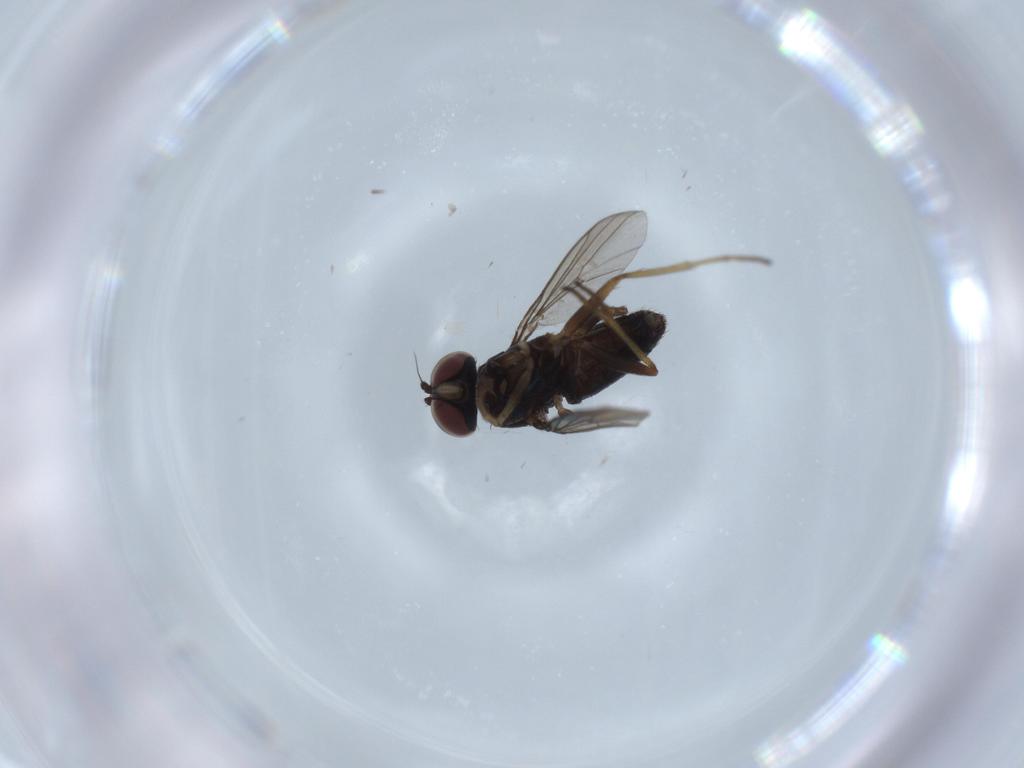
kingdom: Animalia
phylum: Arthropoda
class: Insecta
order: Diptera
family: Dolichopodidae
